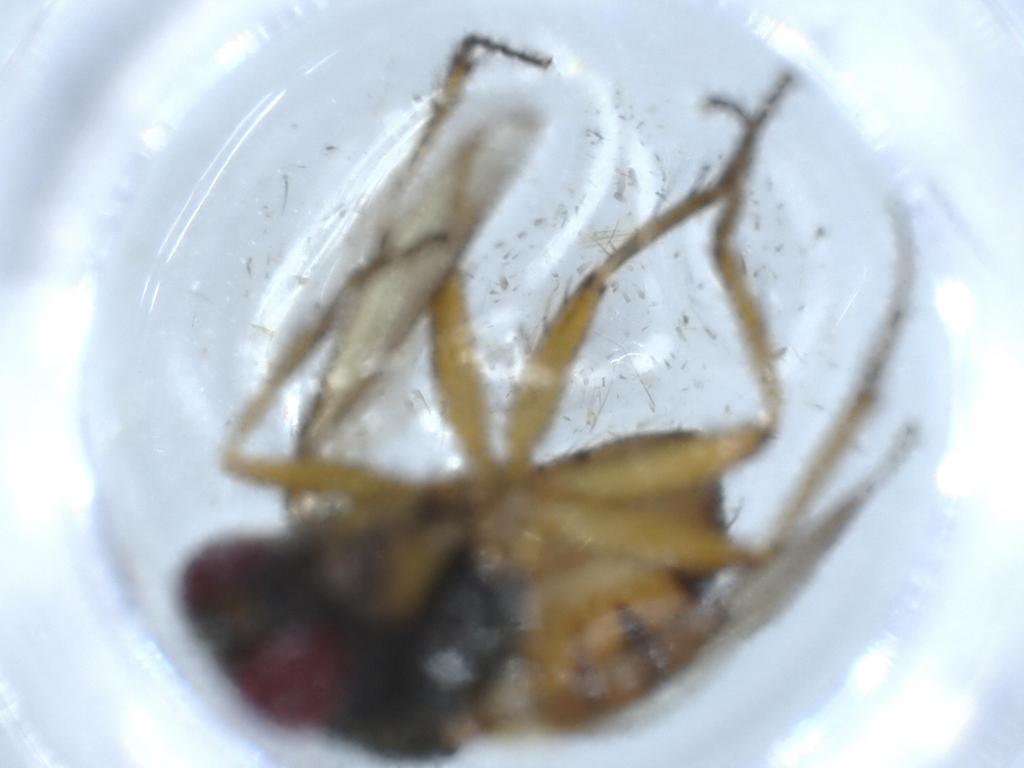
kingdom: Animalia
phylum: Arthropoda
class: Insecta
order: Diptera
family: Muscidae
